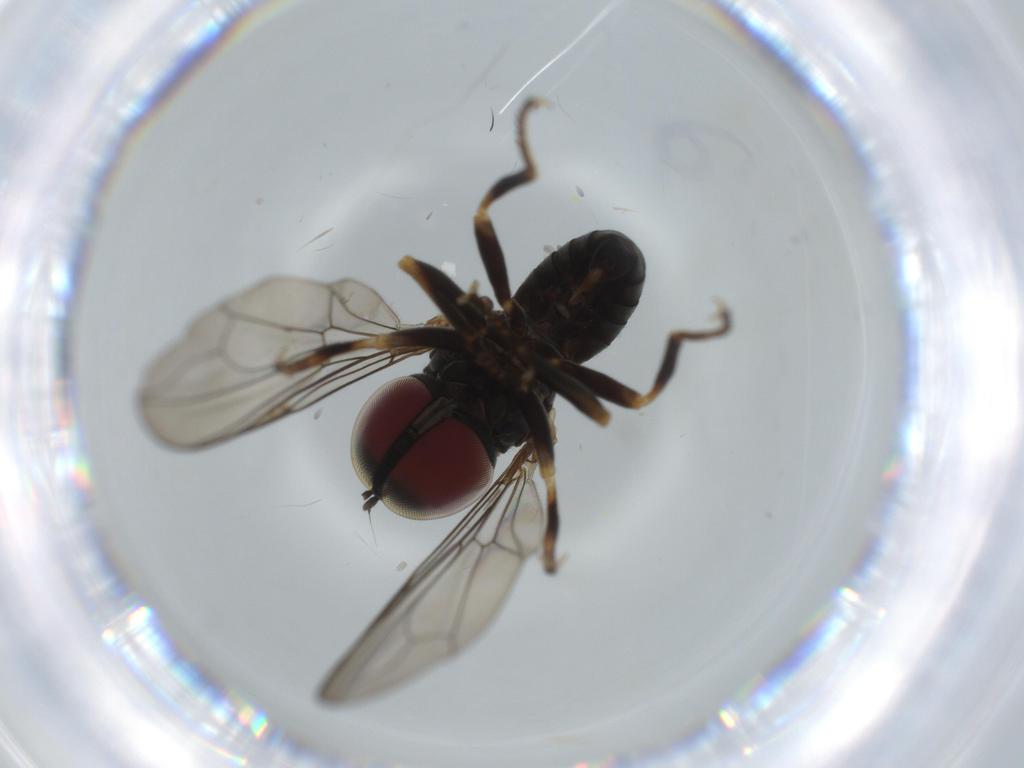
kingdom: Animalia
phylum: Arthropoda
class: Insecta
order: Diptera
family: Cecidomyiidae
